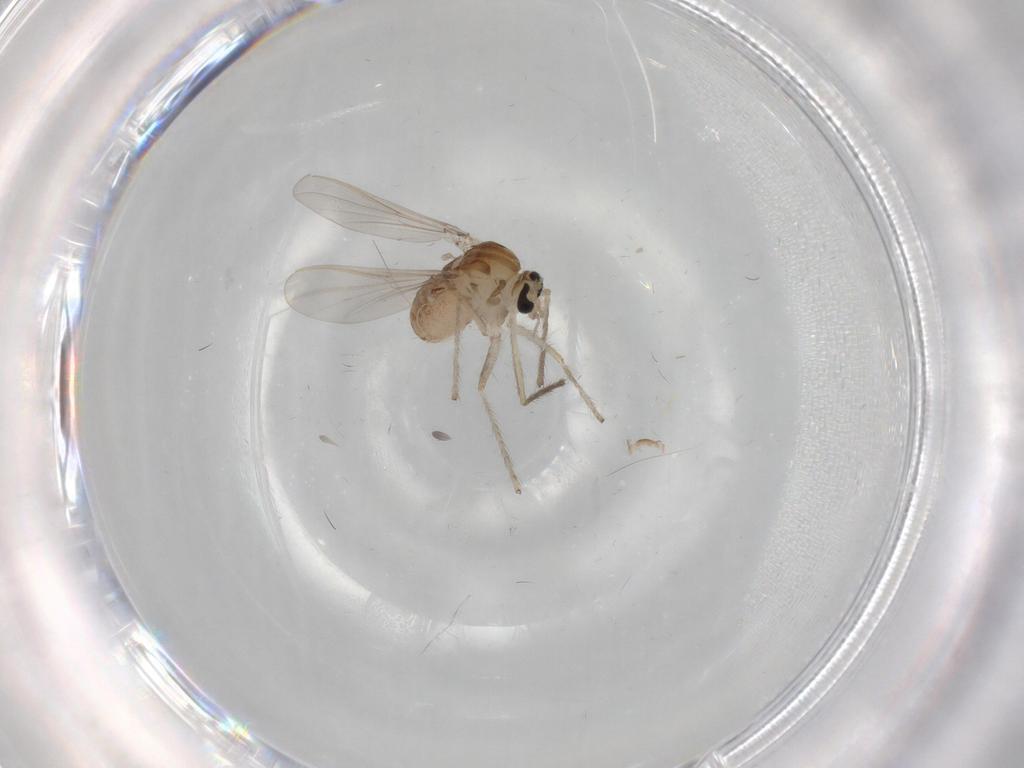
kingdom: Animalia
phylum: Arthropoda
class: Insecta
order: Diptera
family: Chironomidae
